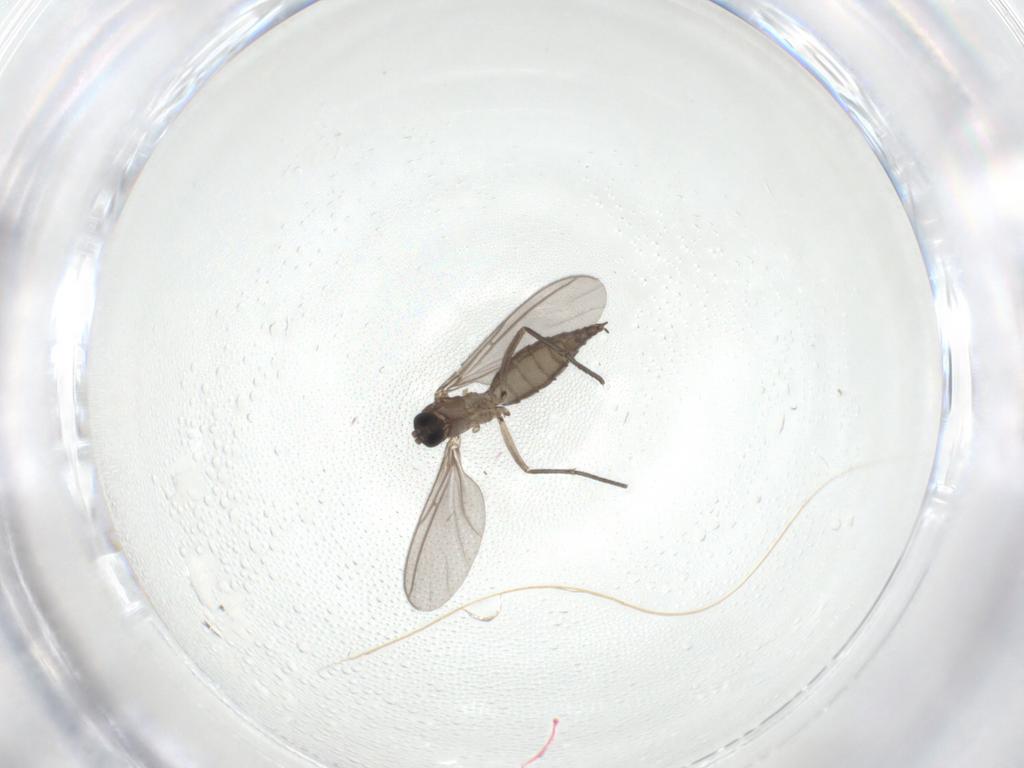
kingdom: Animalia
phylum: Arthropoda
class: Insecta
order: Diptera
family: Sciaridae
